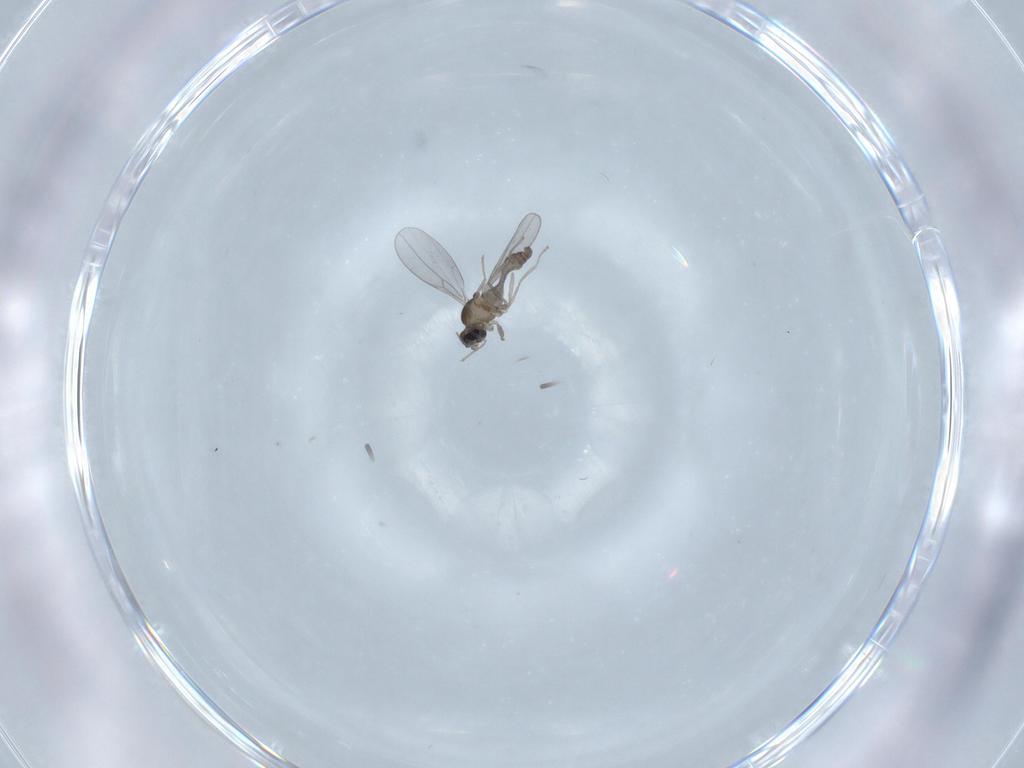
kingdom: Animalia
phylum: Arthropoda
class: Insecta
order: Diptera
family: Cecidomyiidae
